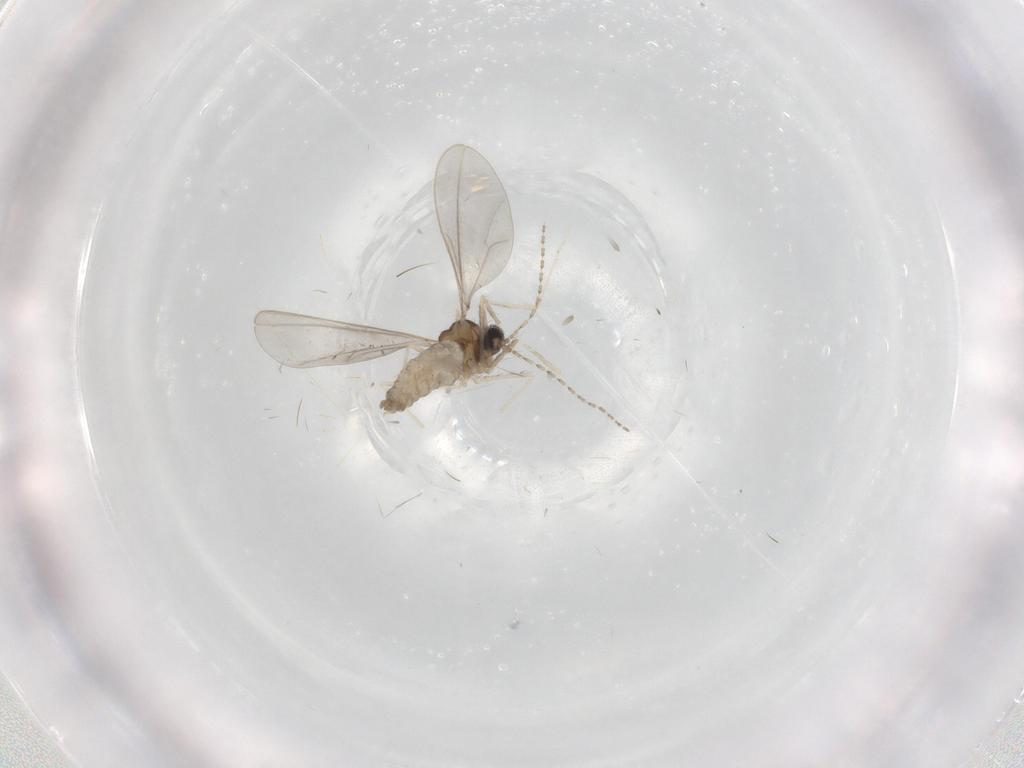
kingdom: Animalia
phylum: Arthropoda
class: Insecta
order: Diptera
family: Cecidomyiidae
